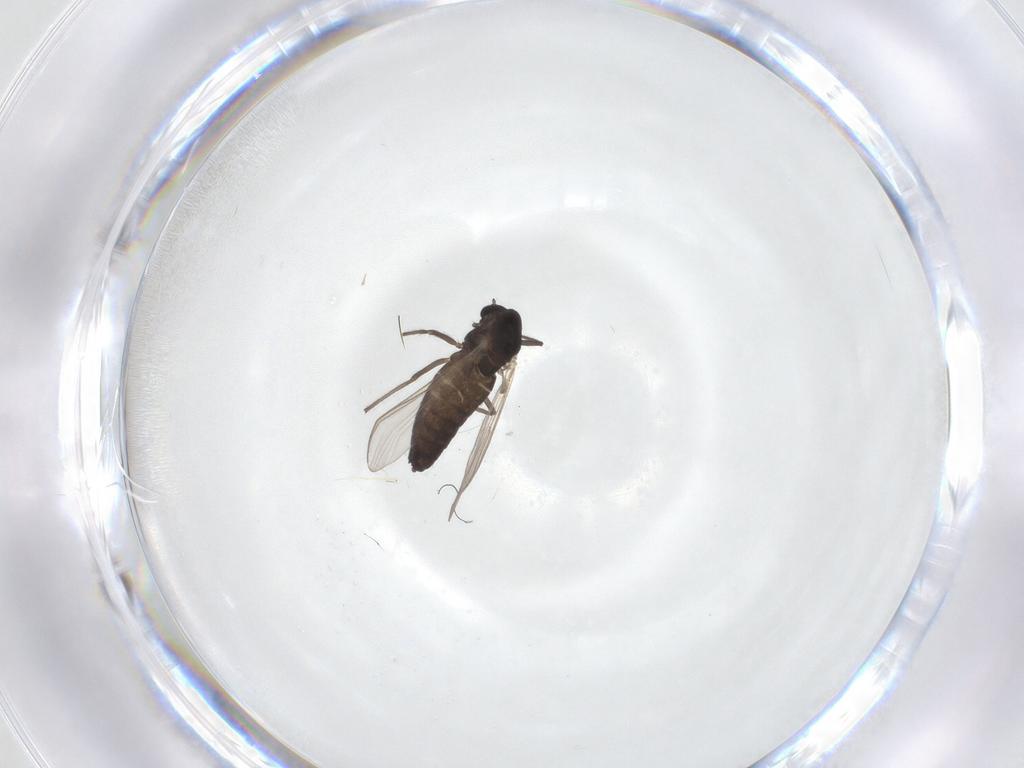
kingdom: Animalia
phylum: Arthropoda
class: Insecta
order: Diptera
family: Chironomidae
